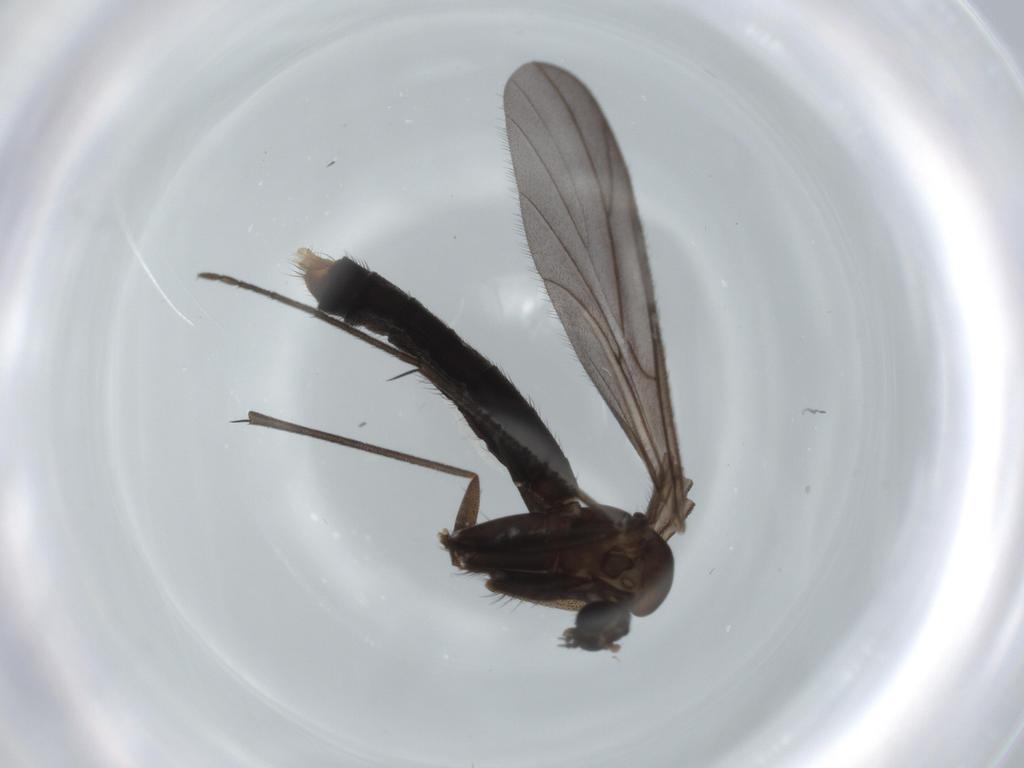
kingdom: Animalia
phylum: Arthropoda
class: Insecta
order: Diptera
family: Ditomyiidae
